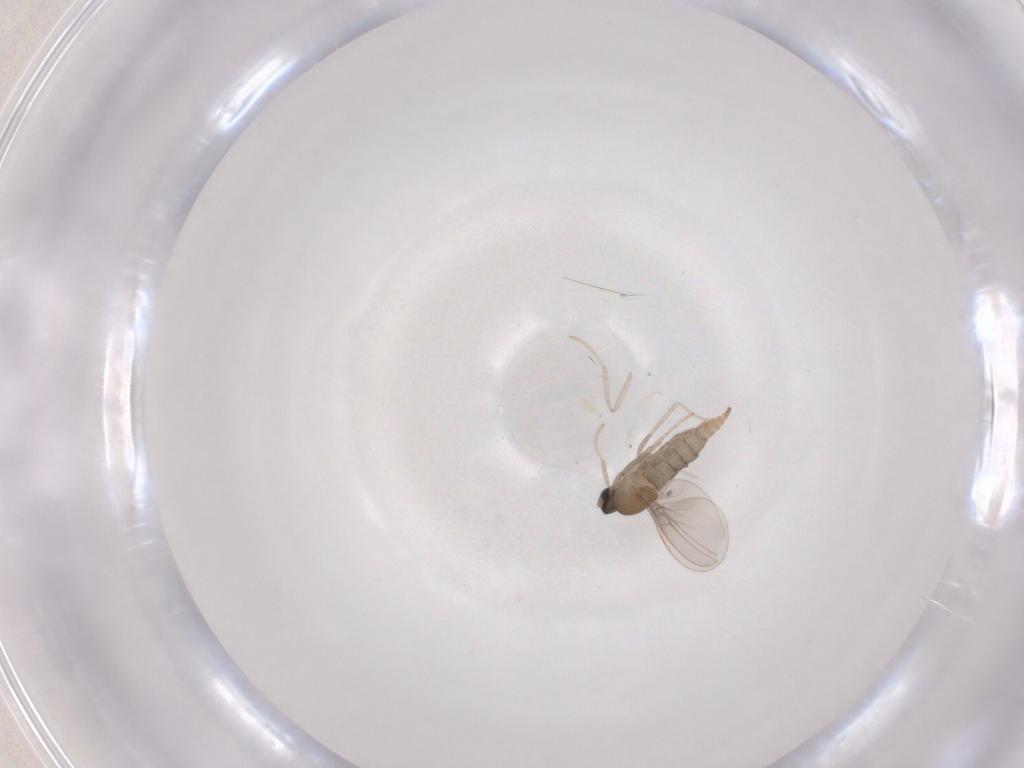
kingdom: Animalia
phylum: Arthropoda
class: Insecta
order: Diptera
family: Cecidomyiidae
